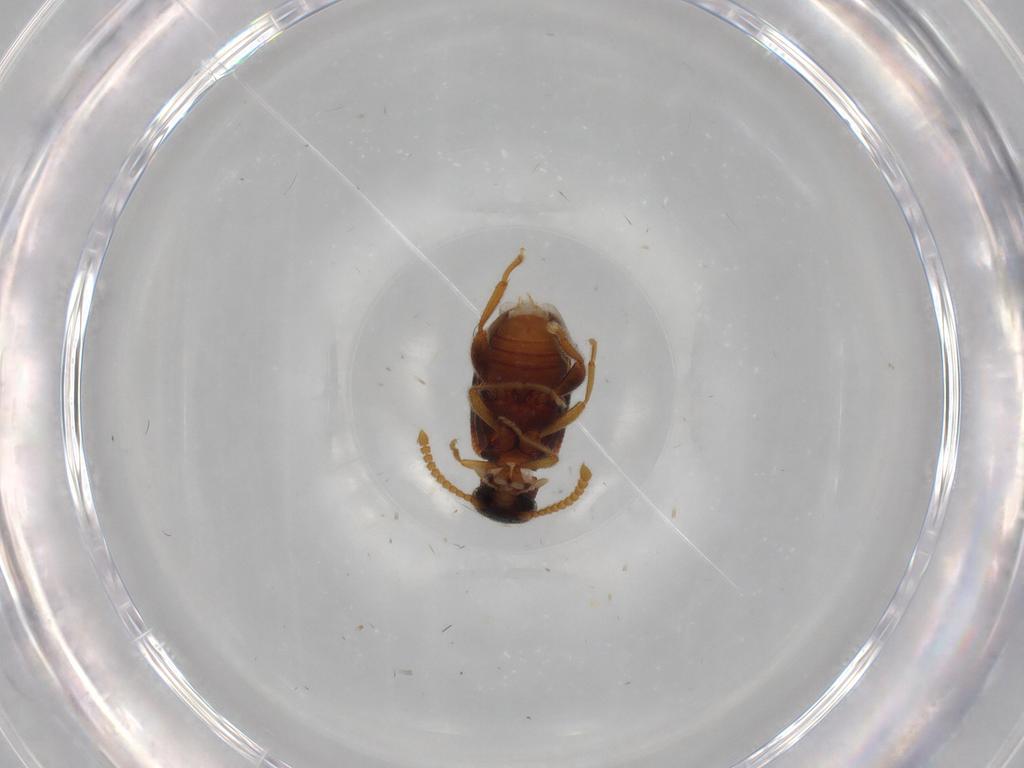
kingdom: Animalia
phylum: Arthropoda
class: Insecta
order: Coleoptera
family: Aderidae
